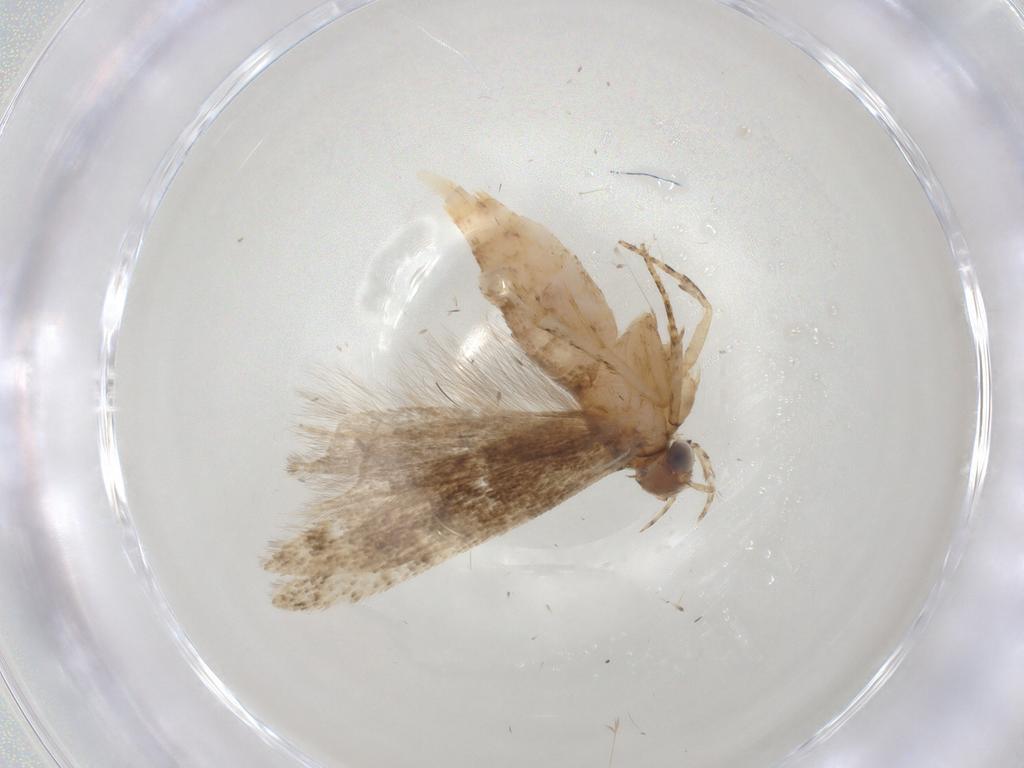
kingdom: Animalia
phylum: Arthropoda
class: Insecta
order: Lepidoptera
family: Gelechiidae
